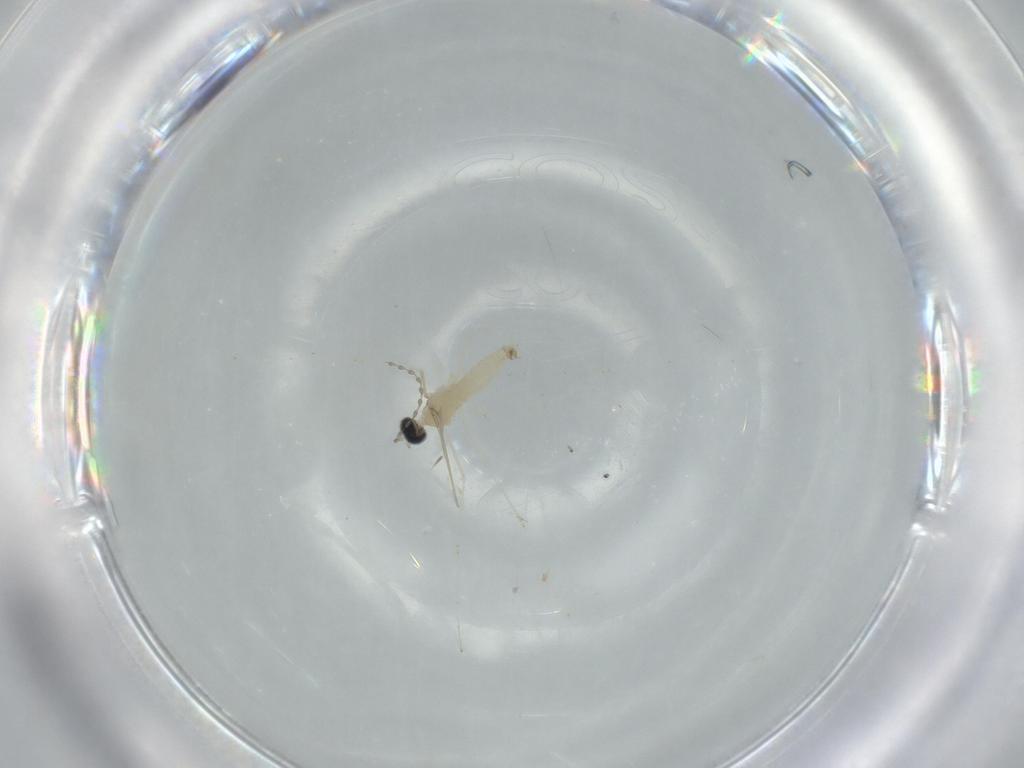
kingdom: Animalia
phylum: Arthropoda
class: Insecta
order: Diptera
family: Cecidomyiidae
